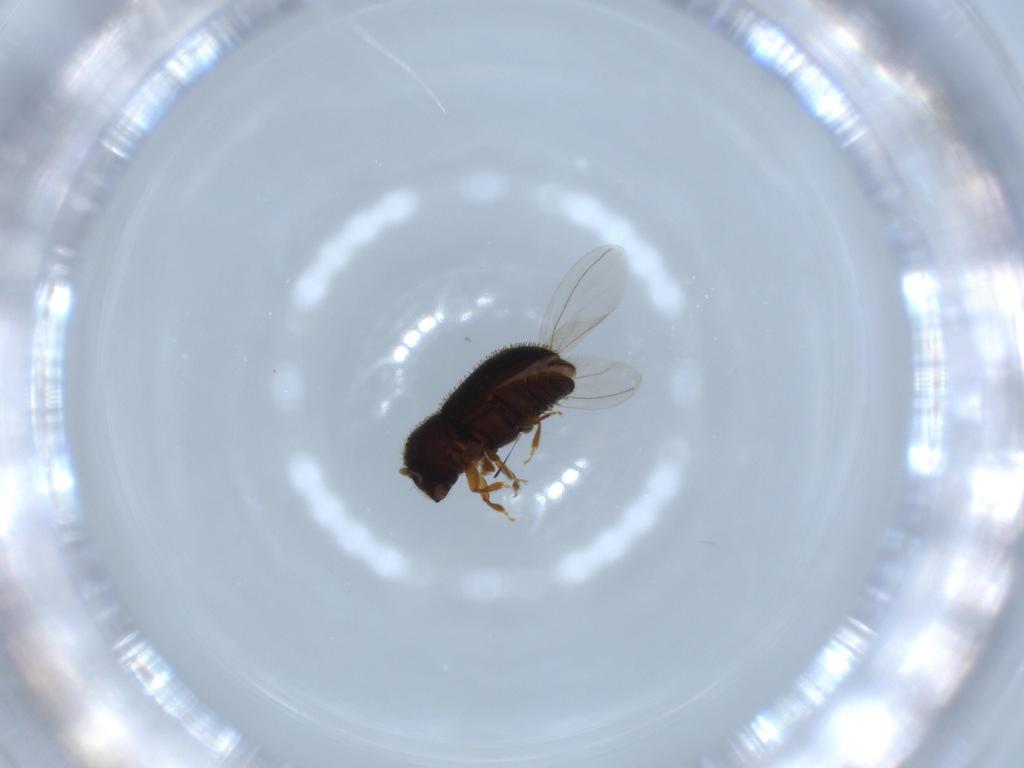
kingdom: Animalia
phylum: Arthropoda
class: Insecta
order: Coleoptera
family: Curculionidae
